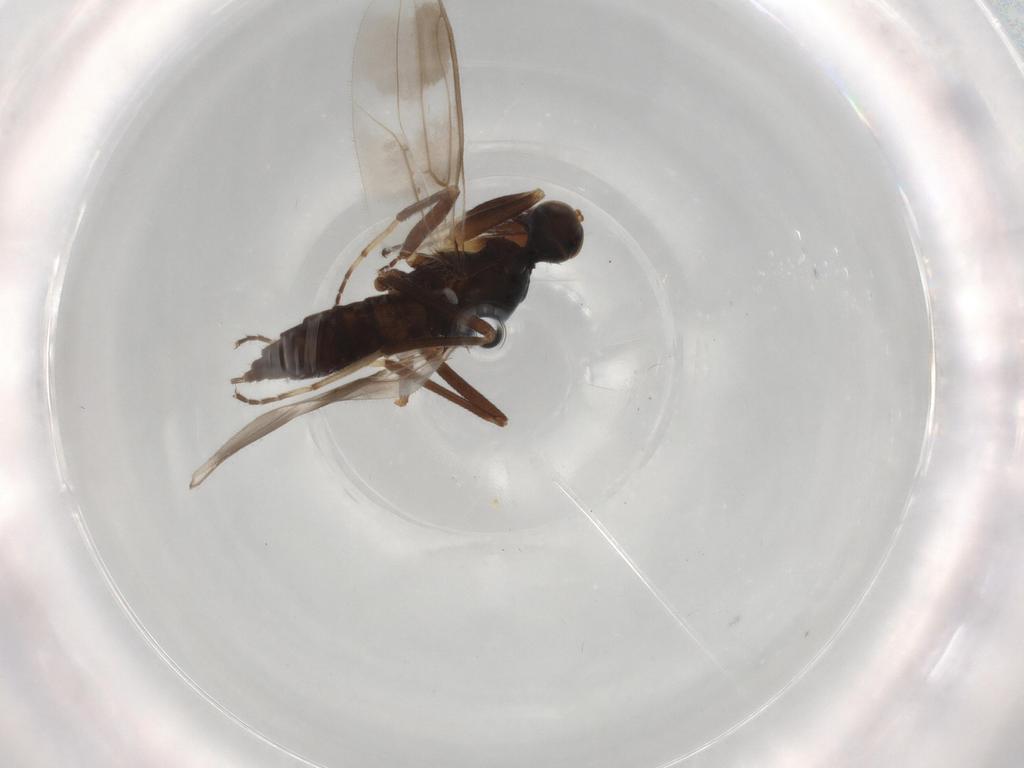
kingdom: Animalia
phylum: Arthropoda
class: Insecta
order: Diptera
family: Hybotidae
